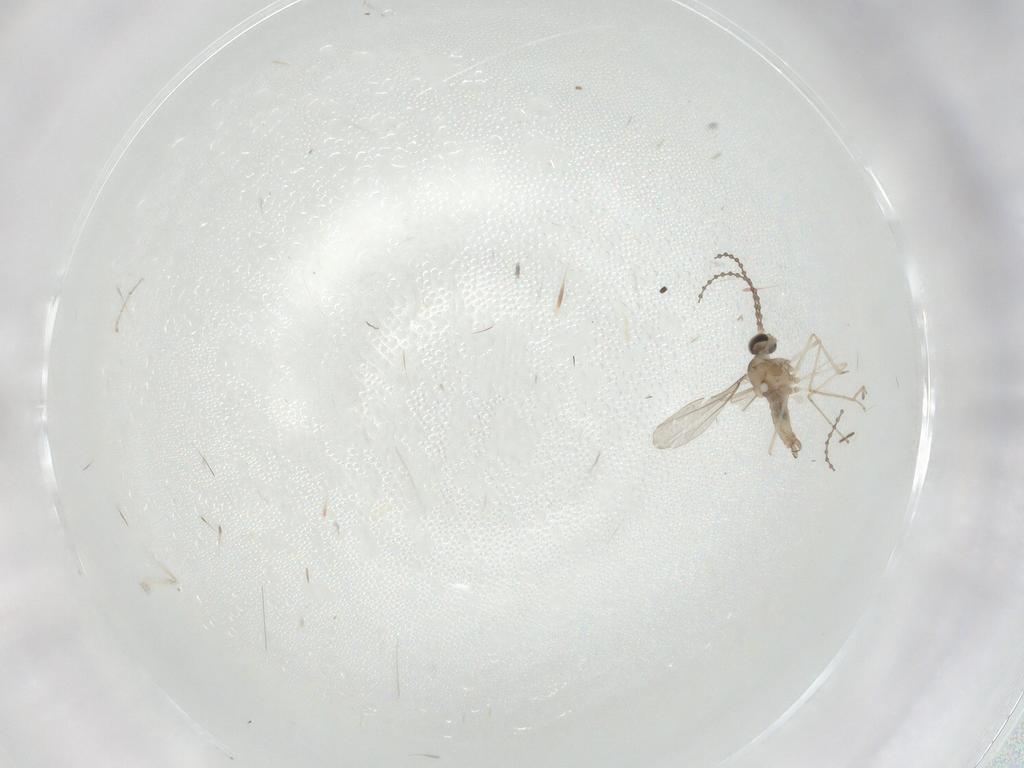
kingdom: Animalia
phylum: Arthropoda
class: Insecta
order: Diptera
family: Cecidomyiidae
